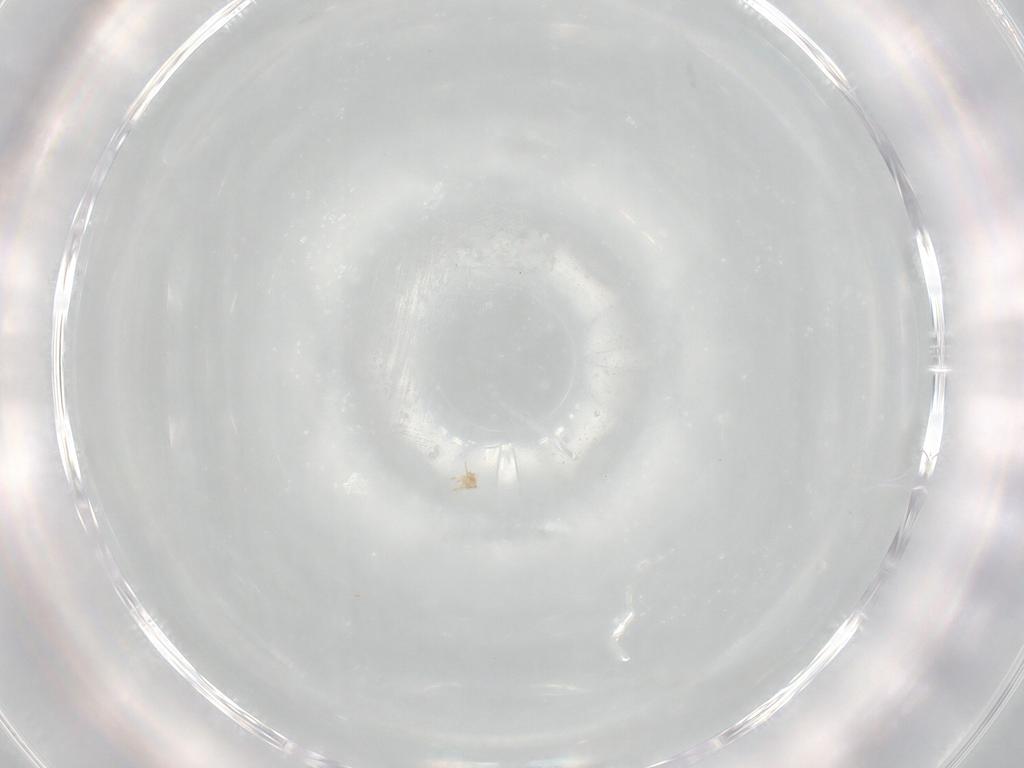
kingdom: Animalia
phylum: Arthropoda
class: Insecta
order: Hemiptera
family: Aleyrodidae
